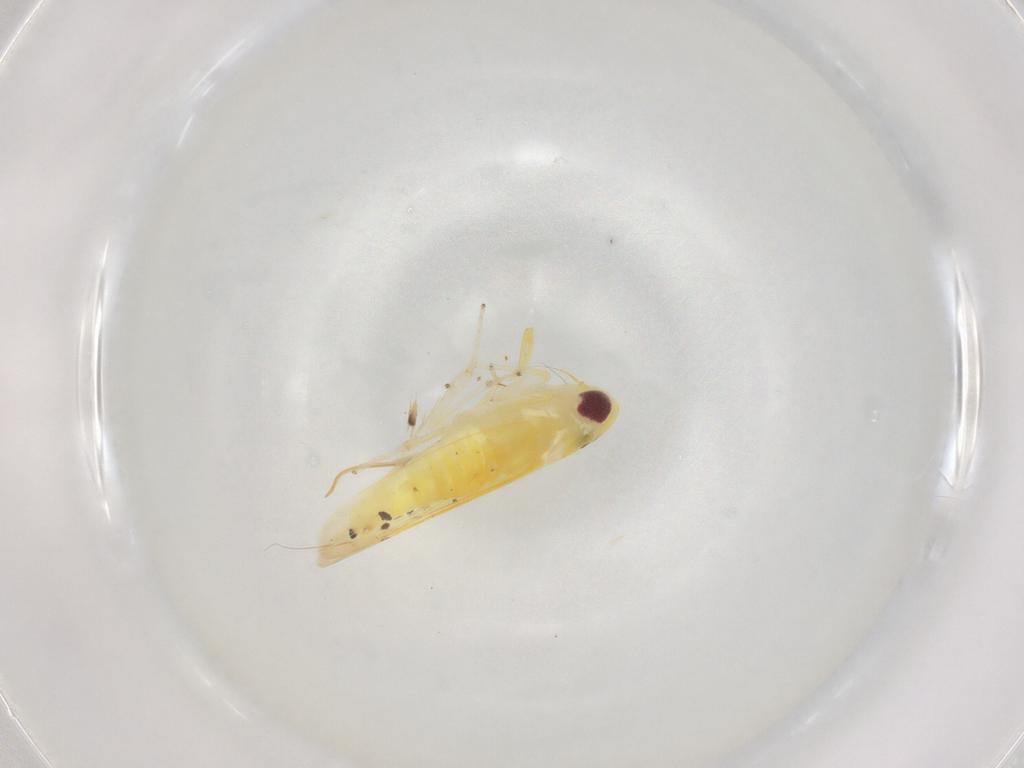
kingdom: Animalia
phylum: Arthropoda
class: Insecta
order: Hemiptera
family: Cicadellidae
